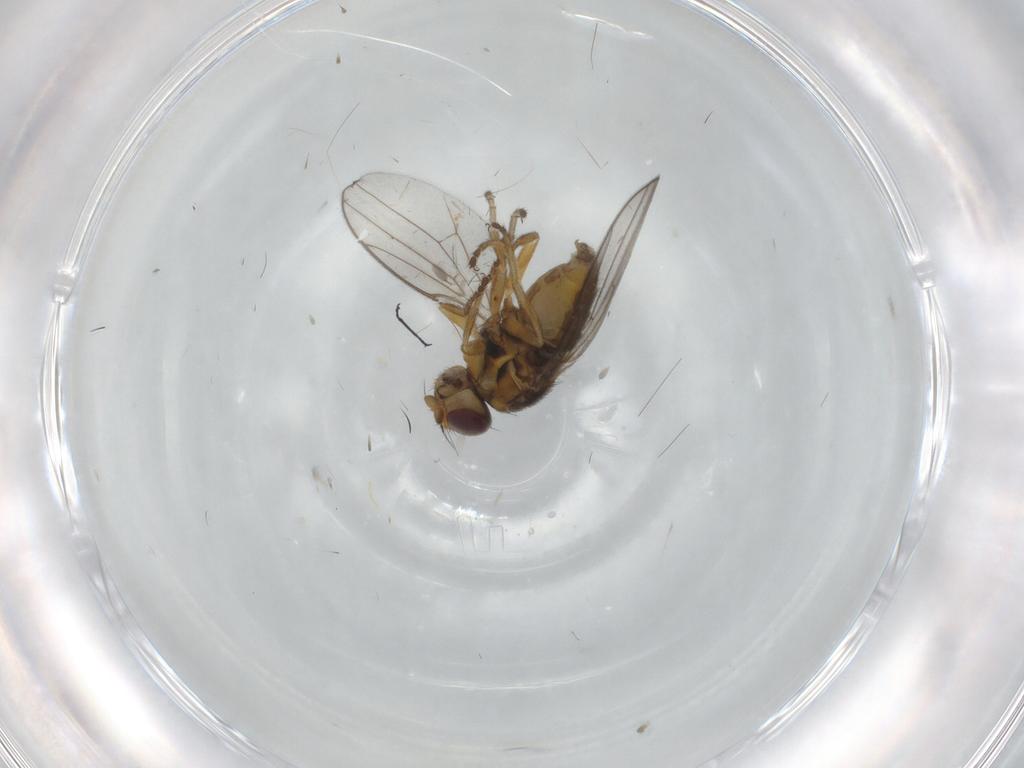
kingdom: Animalia
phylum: Arthropoda
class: Insecta
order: Diptera
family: Chloropidae
